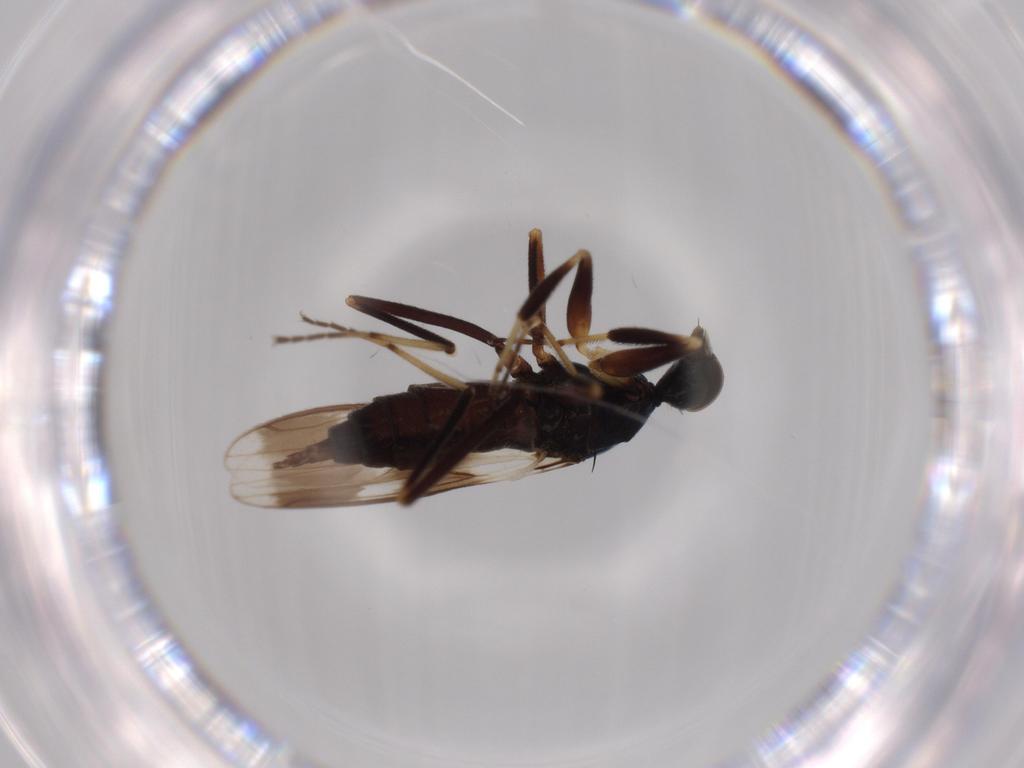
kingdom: Animalia
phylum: Arthropoda
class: Insecta
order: Diptera
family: Hybotidae
